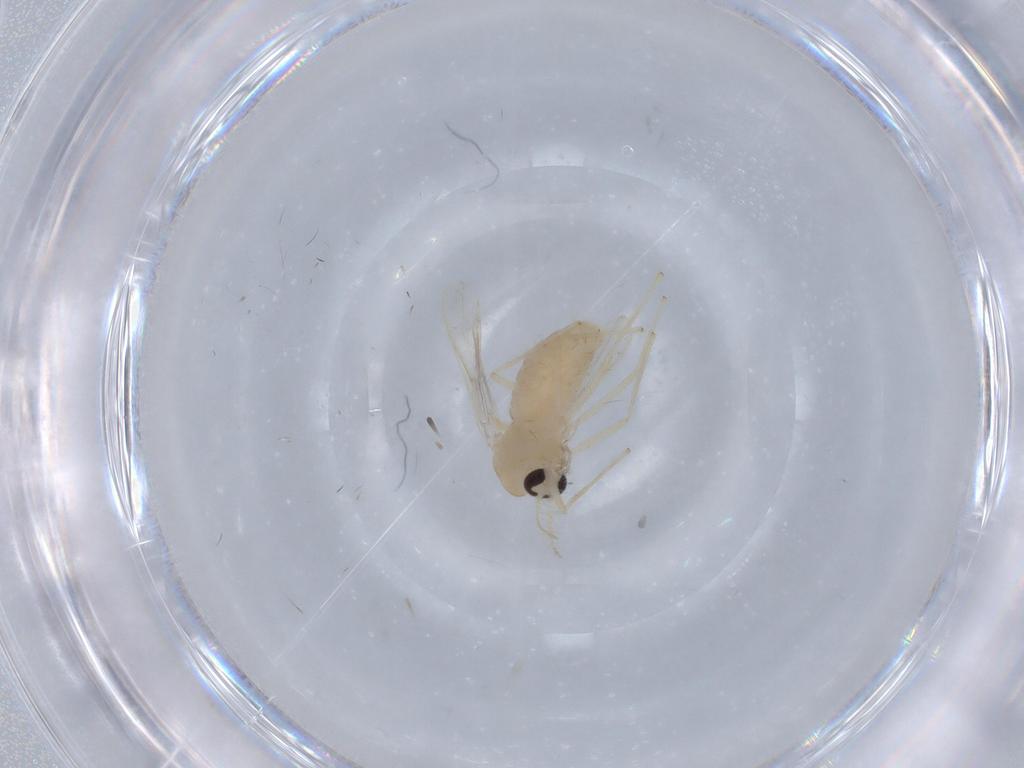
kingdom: Animalia
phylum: Arthropoda
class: Insecta
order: Diptera
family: Chironomidae
